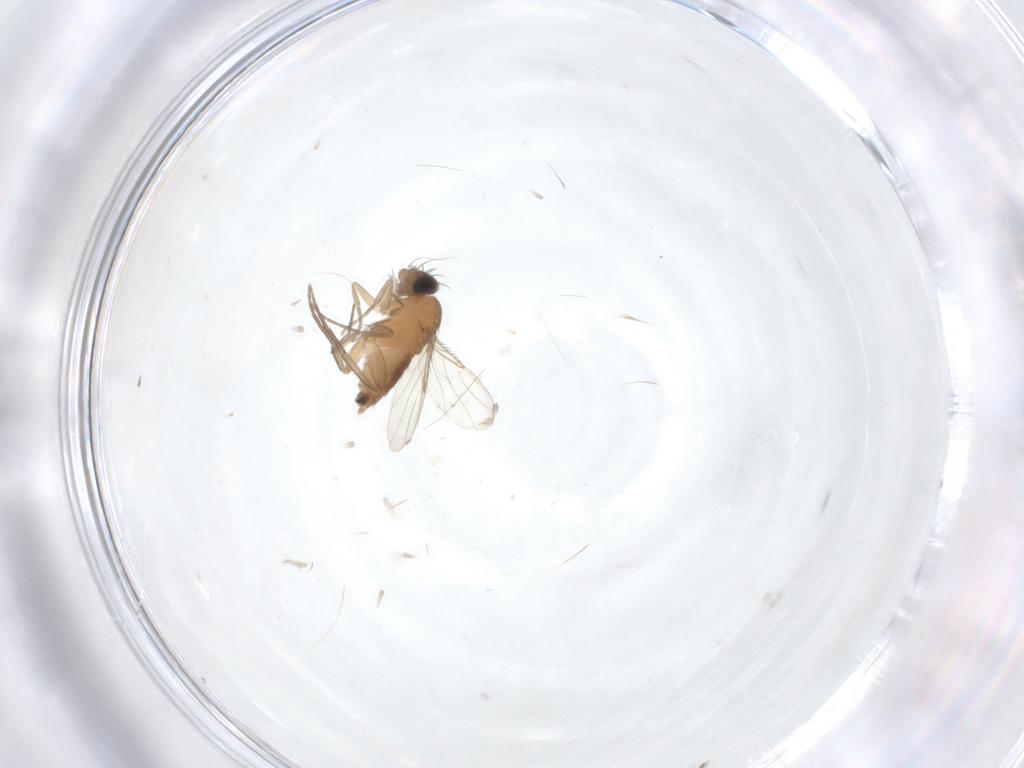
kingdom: Animalia
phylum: Arthropoda
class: Insecta
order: Diptera
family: Phoridae
